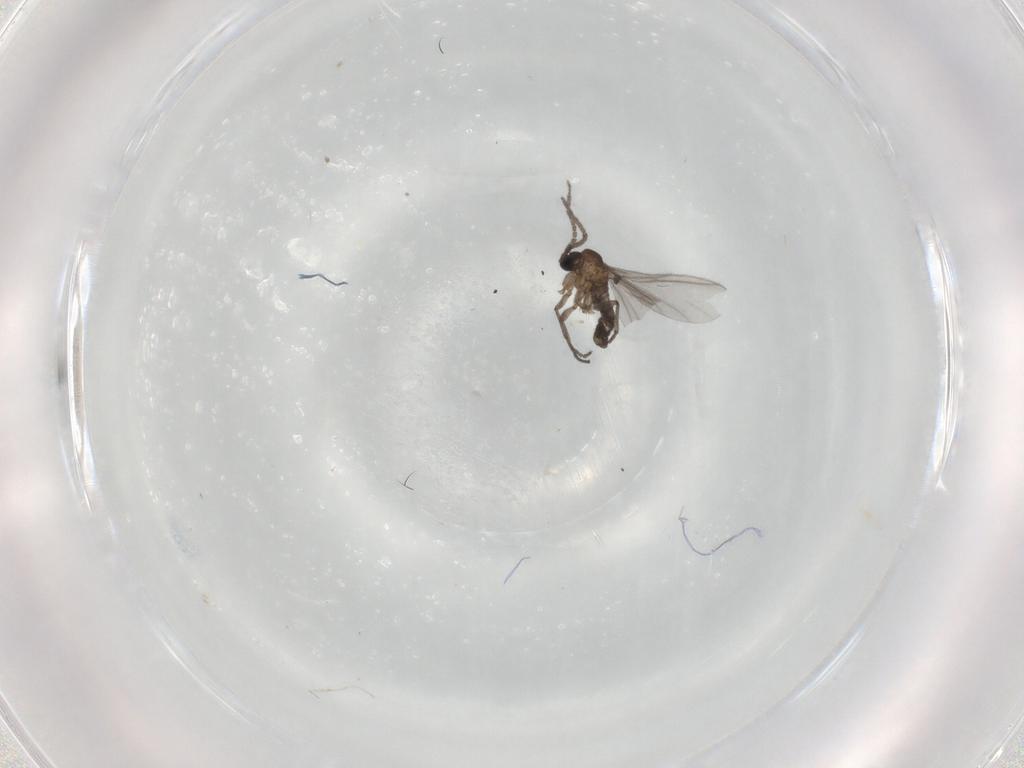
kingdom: Animalia
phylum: Arthropoda
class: Insecta
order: Diptera
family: Sciaridae
